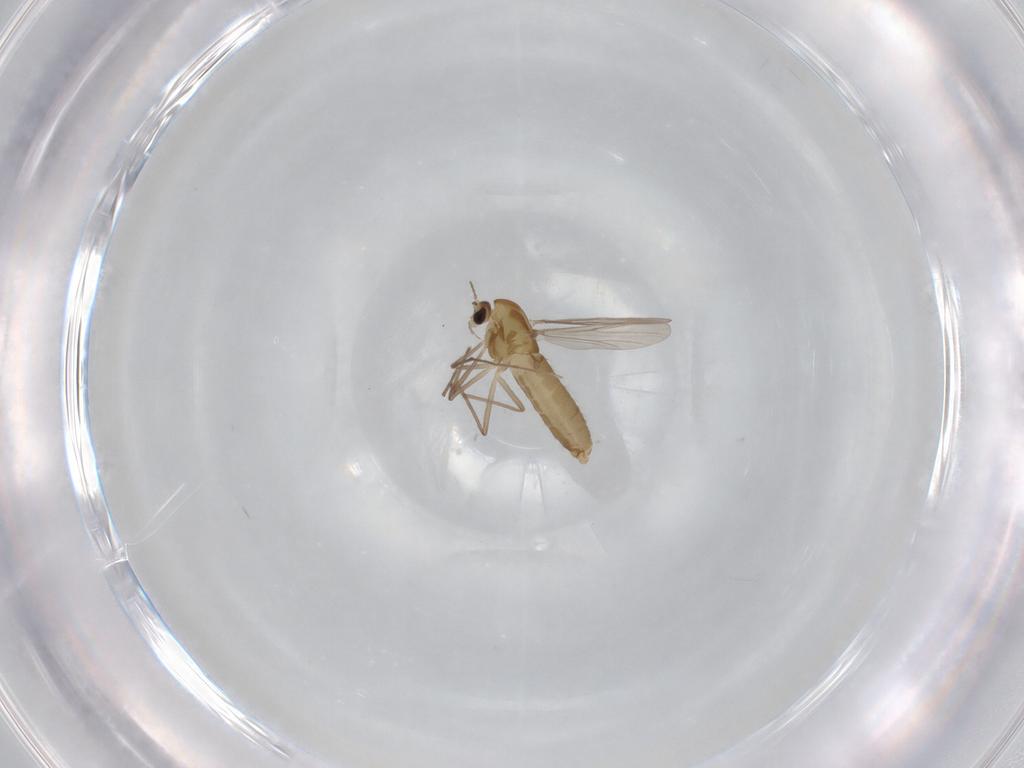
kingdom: Animalia
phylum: Arthropoda
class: Insecta
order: Diptera
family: Chironomidae
